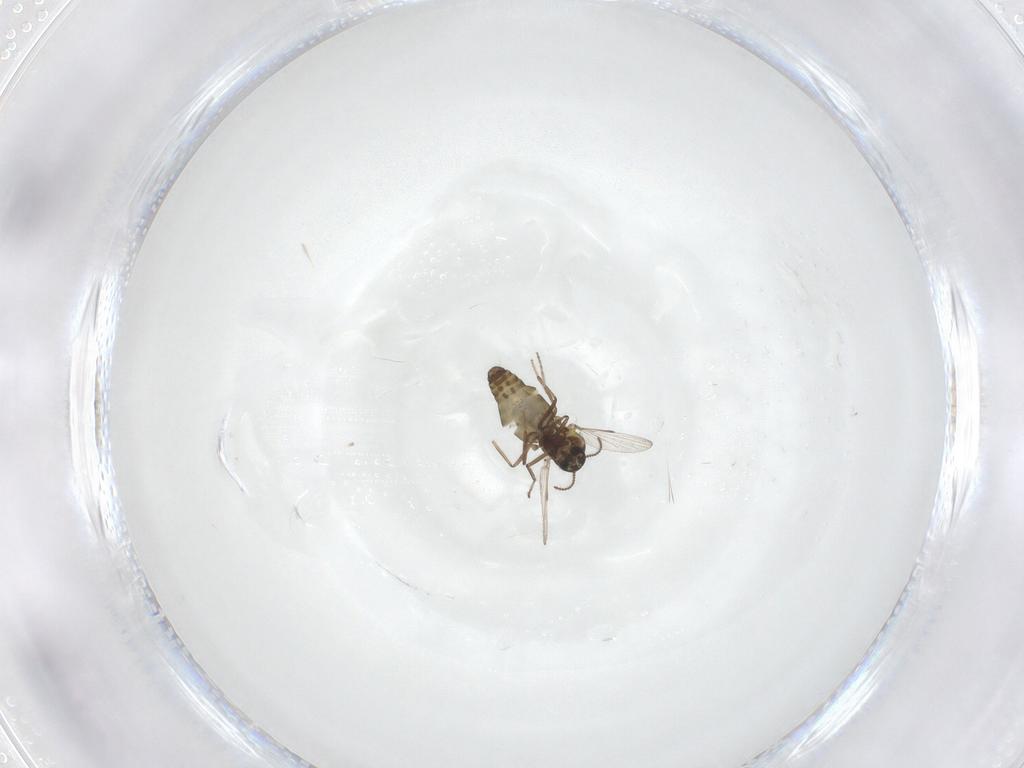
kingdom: Animalia
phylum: Arthropoda
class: Insecta
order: Diptera
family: Ceratopogonidae
